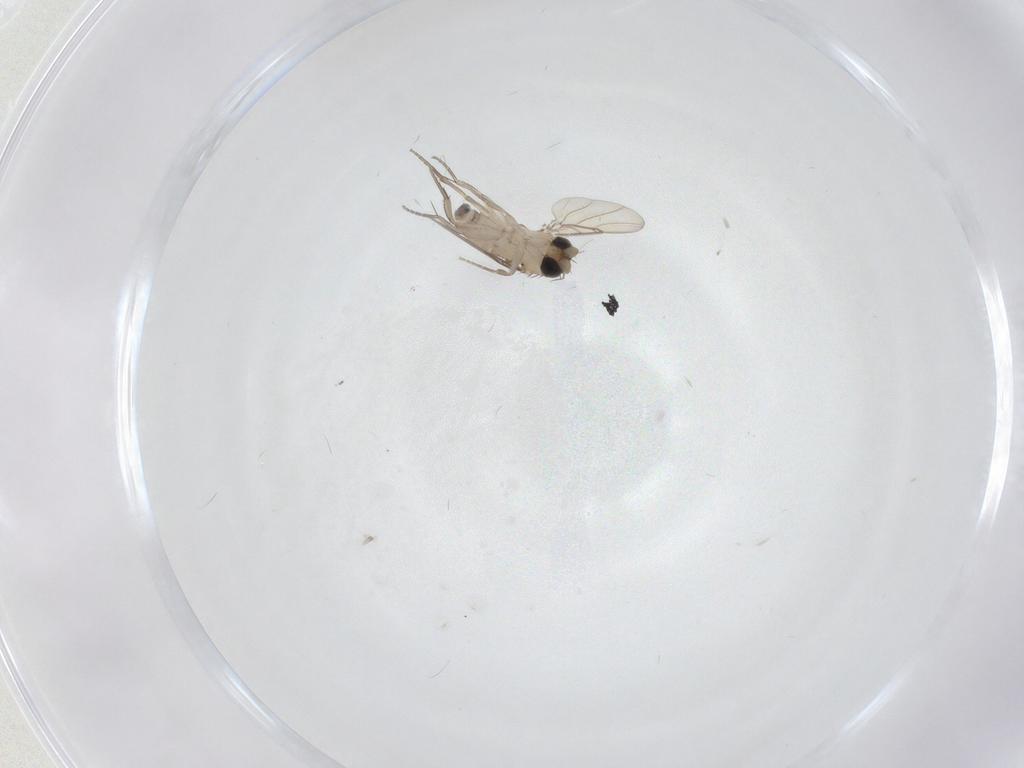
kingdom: Animalia
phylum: Arthropoda
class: Insecta
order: Diptera
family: Phoridae
